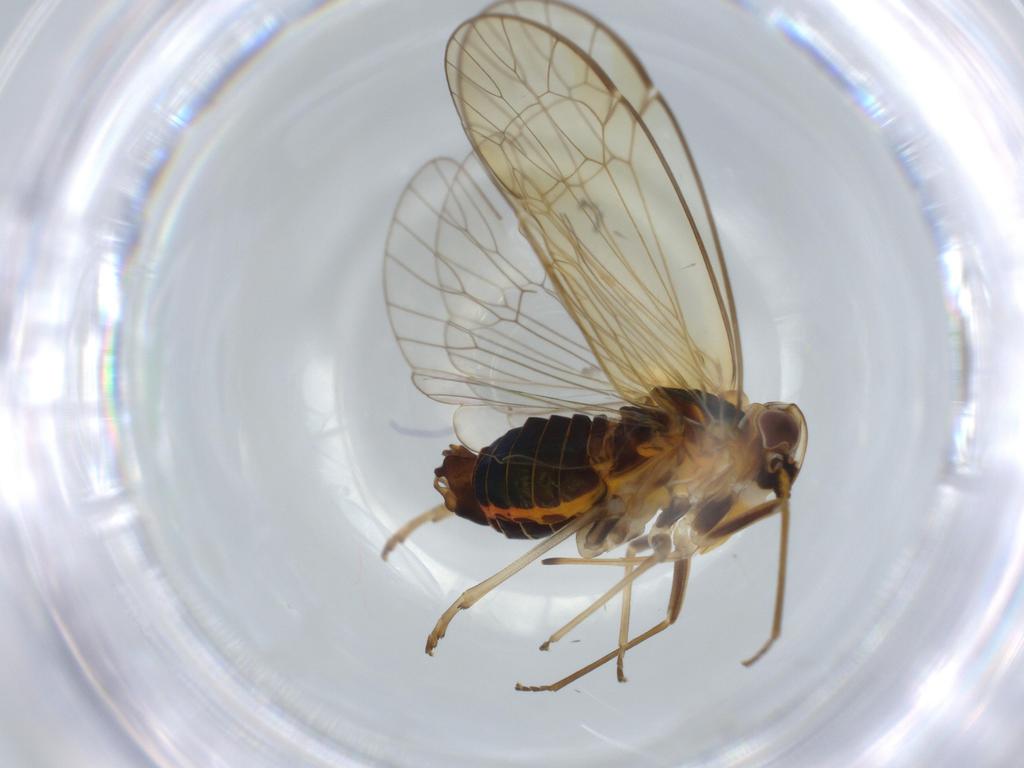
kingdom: Animalia
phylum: Arthropoda
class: Insecta
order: Hemiptera
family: Kinnaridae
